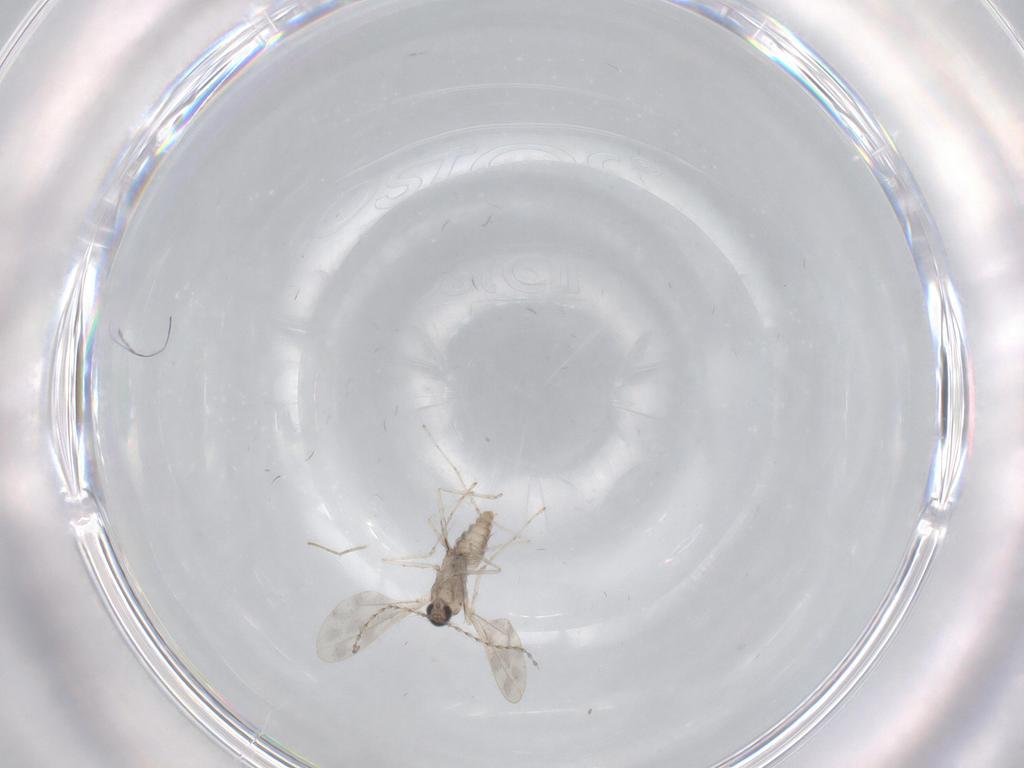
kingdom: Animalia
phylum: Arthropoda
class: Insecta
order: Diptera
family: Cecidomyiidae
